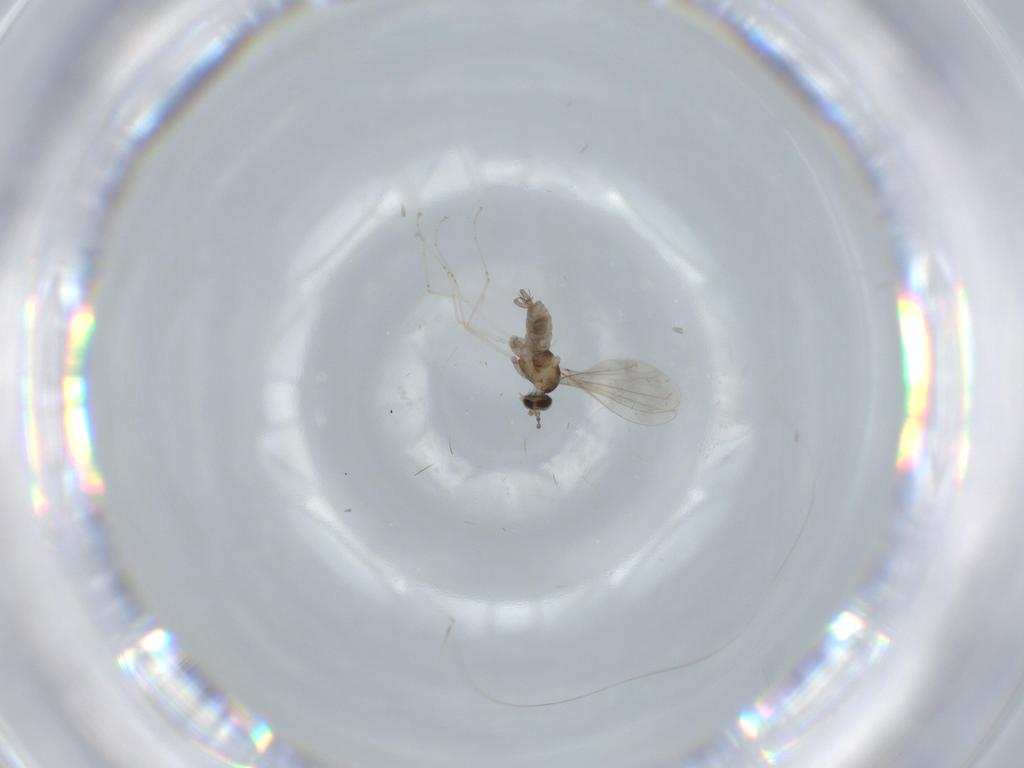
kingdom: Animalia
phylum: Arthropoda
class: Insecta
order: Diptera
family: Cecidomyiidae
